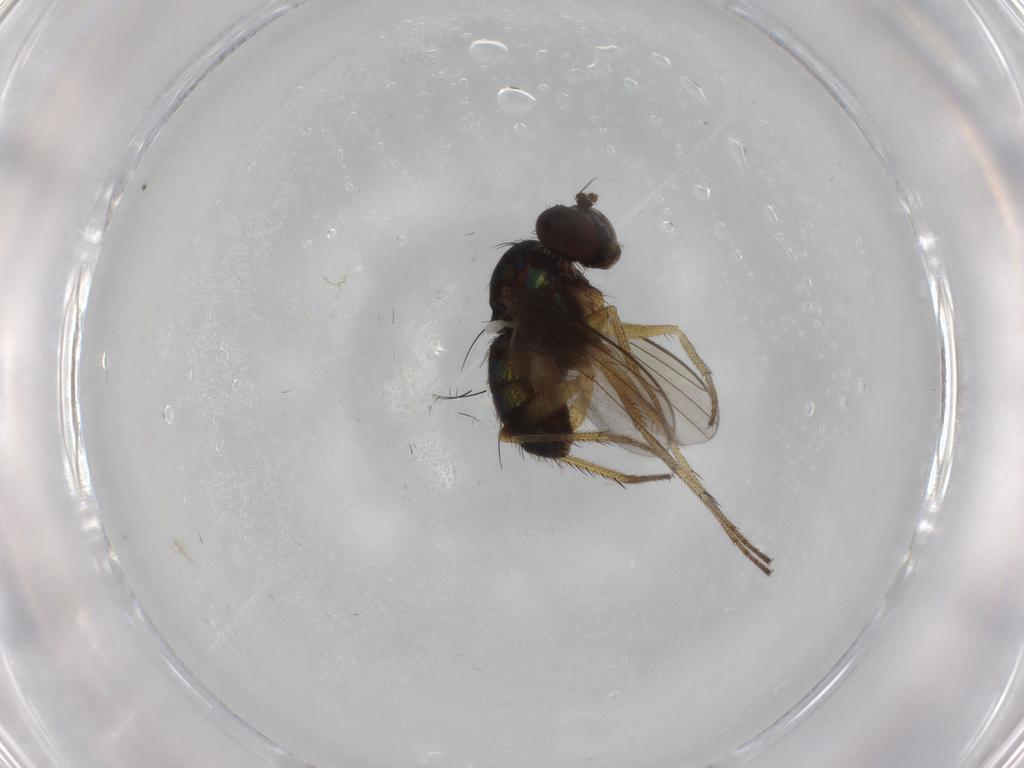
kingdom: Animalia
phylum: Arthropoda
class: Insecta
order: Diptera
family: Dolichopodidae
